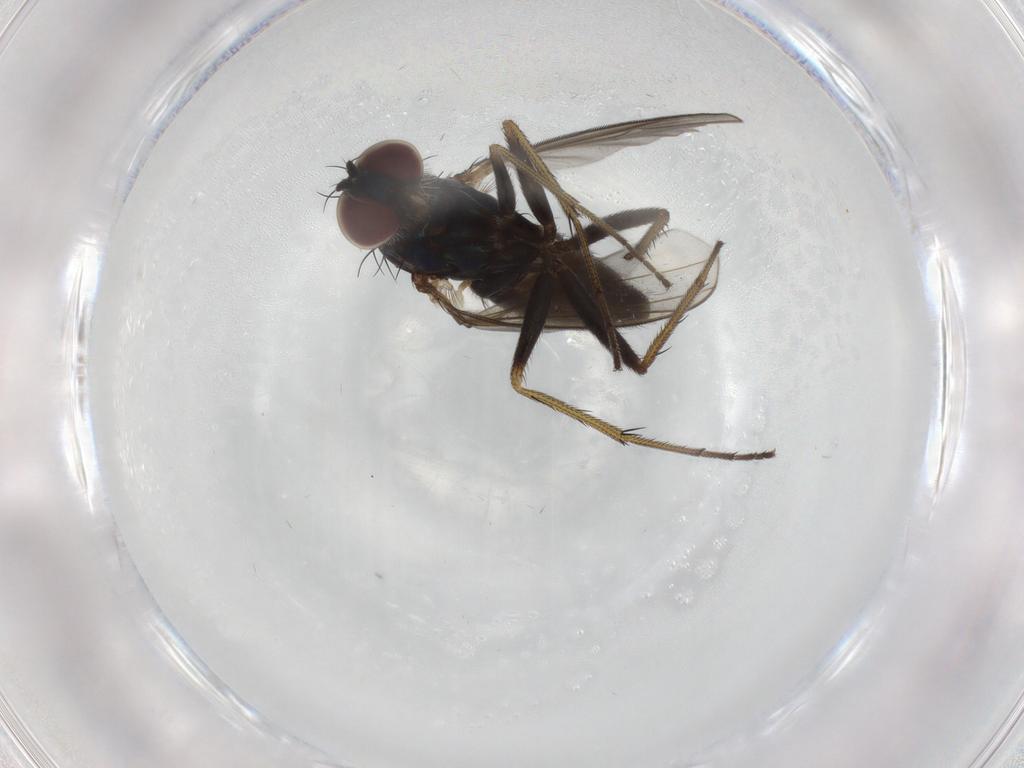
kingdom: Animalia
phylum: Arthropoda
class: Insecta
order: Diptera
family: Dolichopodidae
